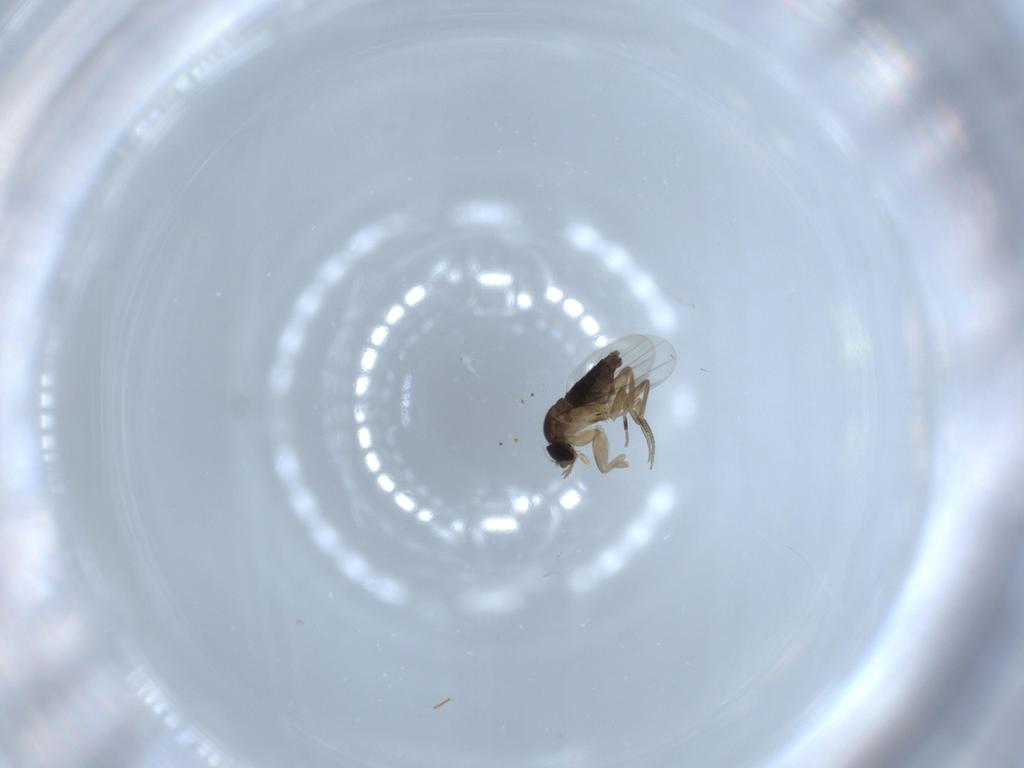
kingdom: Animalia
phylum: Arthropoda
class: Insecta
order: Diptera
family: Phoridae
